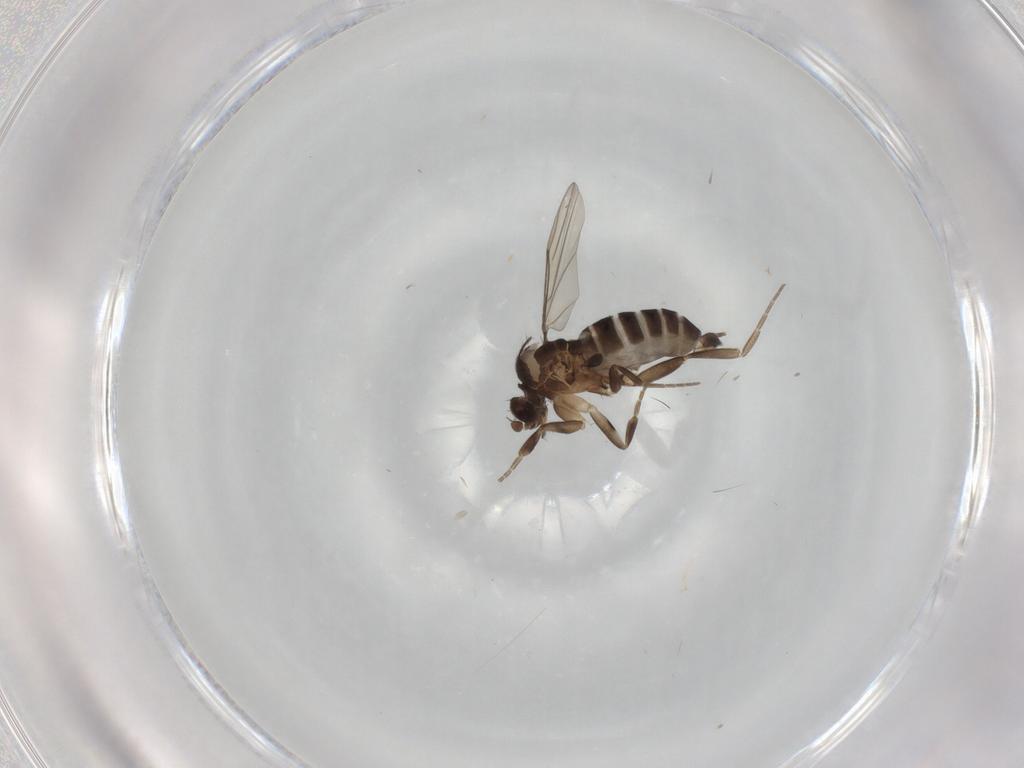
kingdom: Animalia
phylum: Arthropoda
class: Insecta
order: Diptera
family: Phoridae
